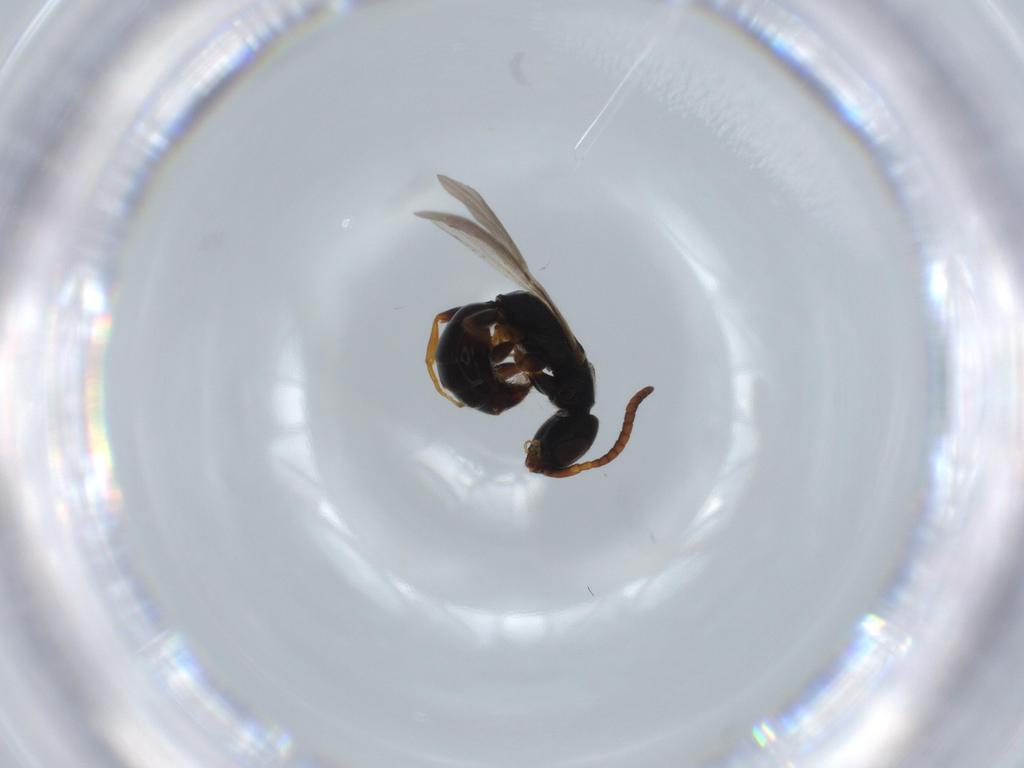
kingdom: Animalia
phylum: Arthropoda
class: Insecta
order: Hymenoptera
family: Bethylidae
